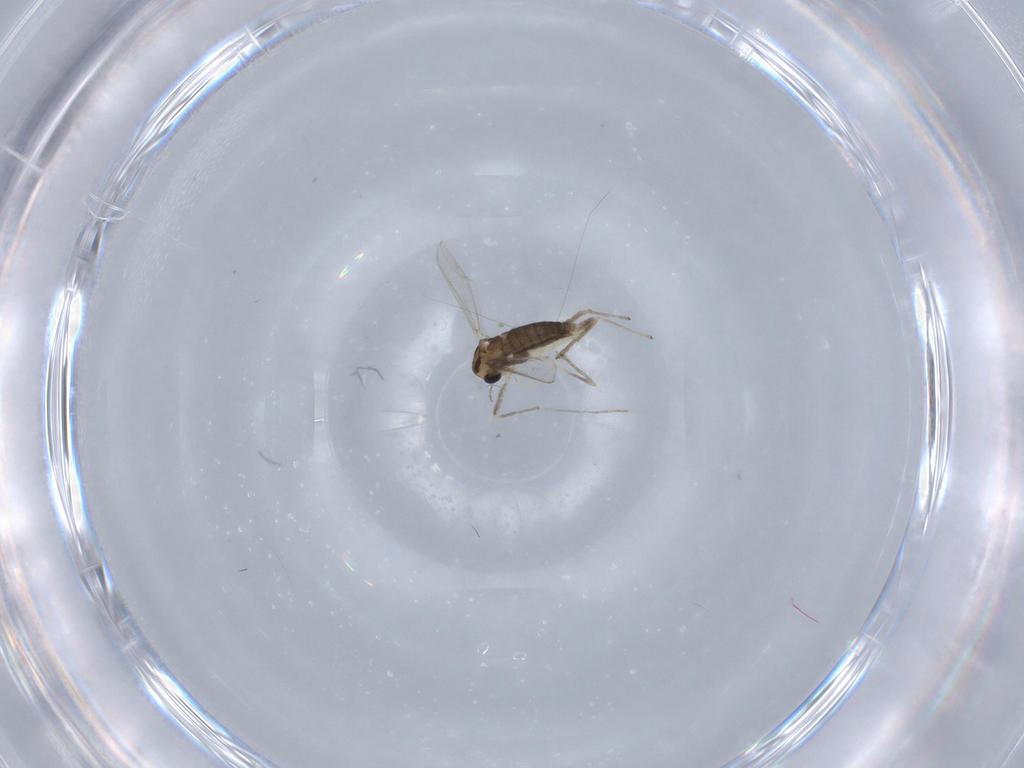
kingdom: Animalia
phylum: Arthropoda
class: Insecta
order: Diptera
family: Chironomidae
